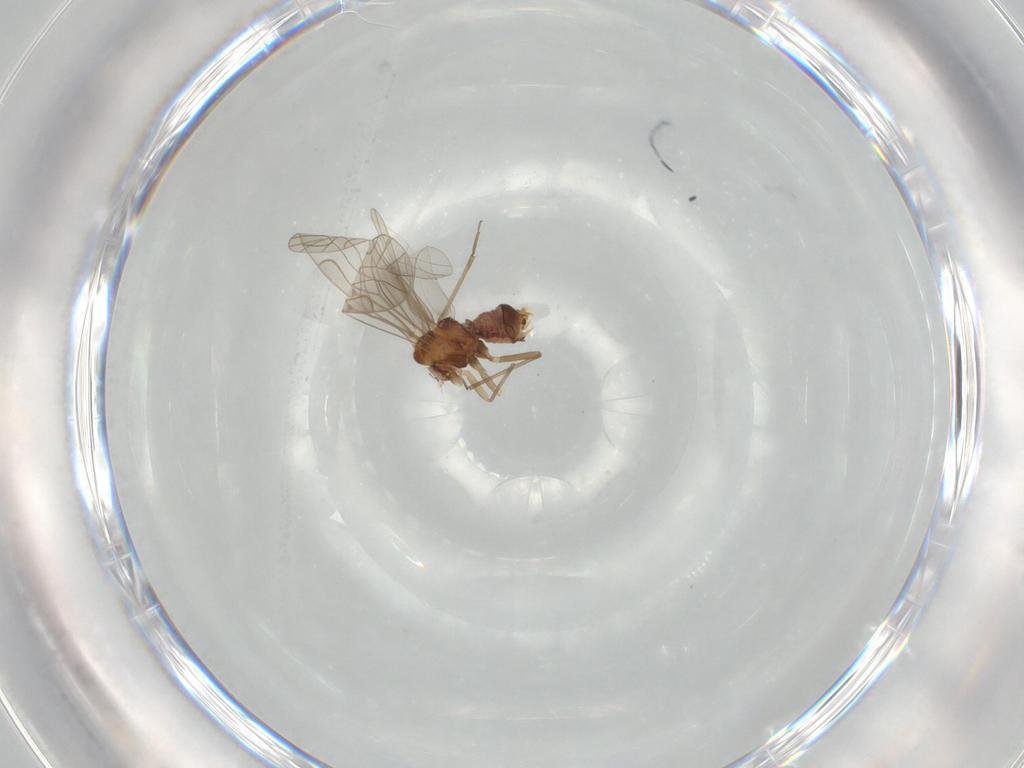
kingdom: Animalia
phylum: Arthropoda
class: Insecta
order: Psocodea
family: Lachesillidae
